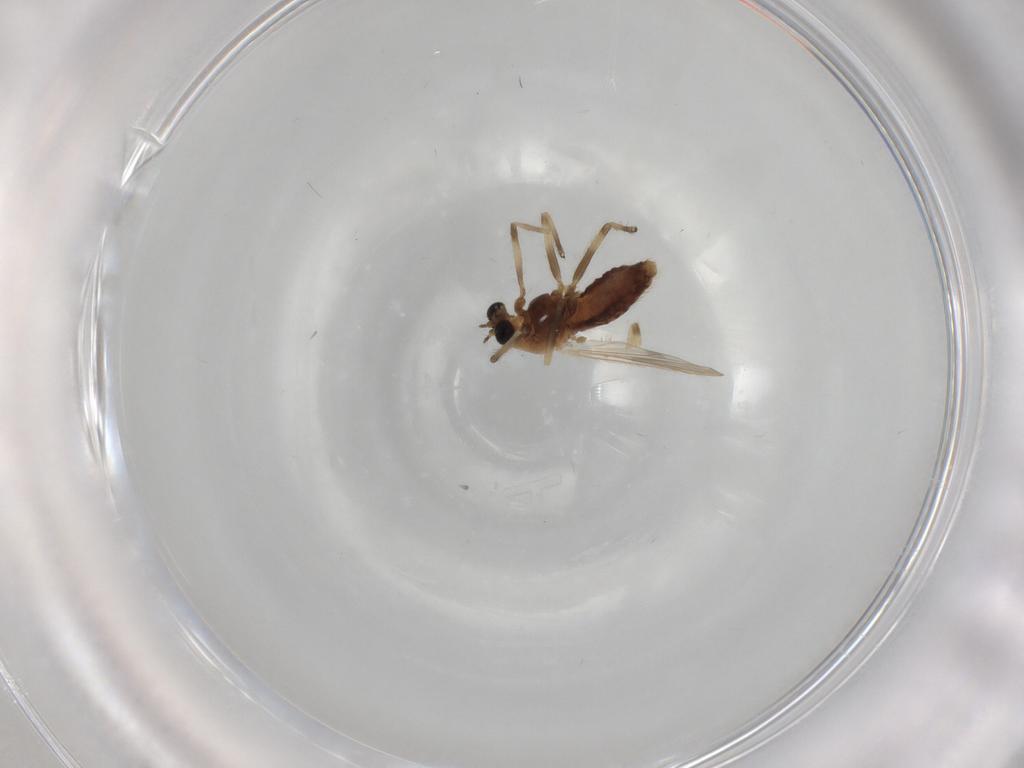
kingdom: Animalia
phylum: Arthropoda
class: Insecta
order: Diptera
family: Chironomidae
